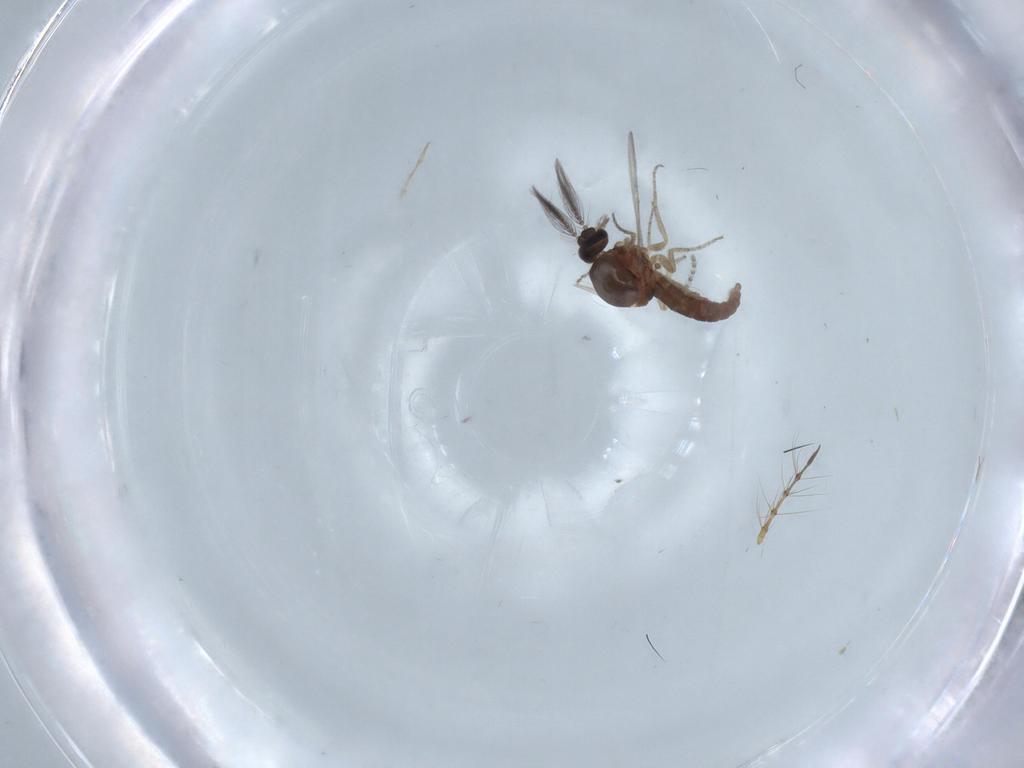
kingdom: Animalia
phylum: Arthropoda
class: Insecta
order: Diptera
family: Ceratopogonidae
